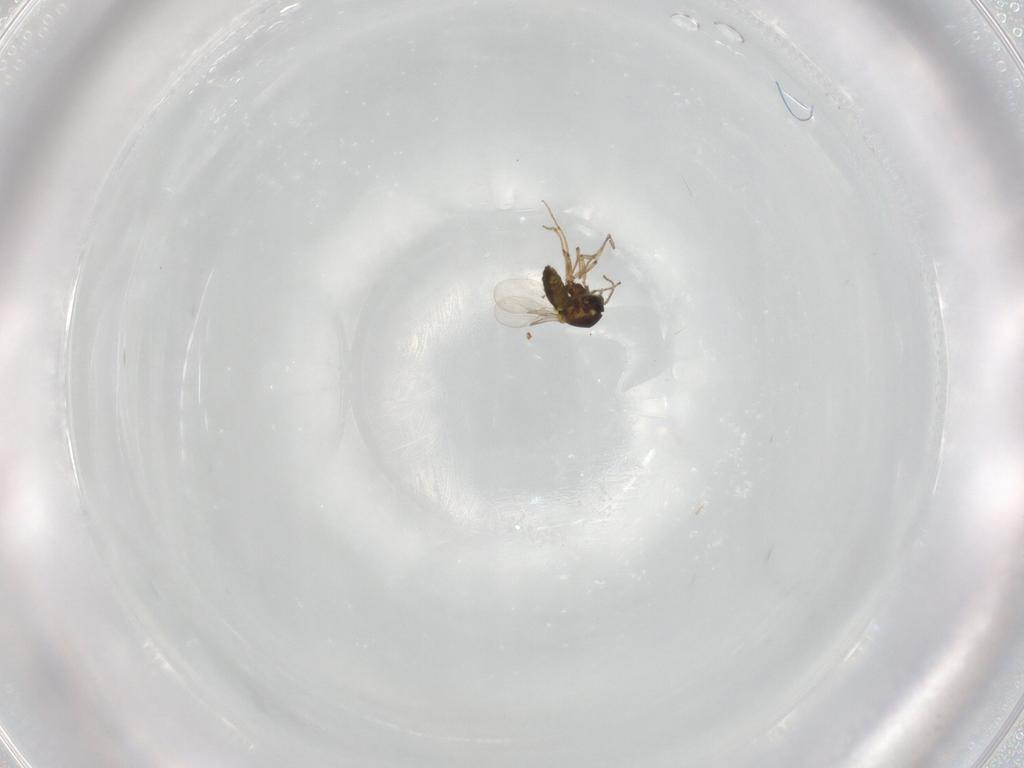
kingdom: Animalia
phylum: Arthropoda
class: Insecta
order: Diptera
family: Ceratopogonidae
